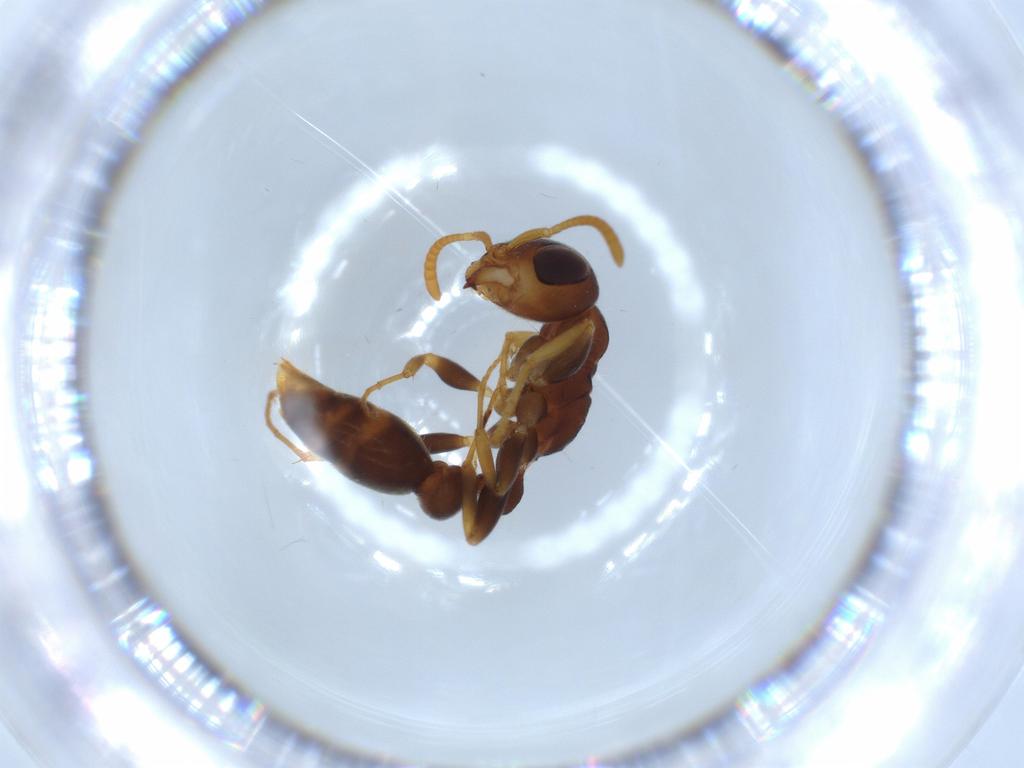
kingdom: Animalia
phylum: Arthropoda
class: Insecta
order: Hymenoptera
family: Formicidae
